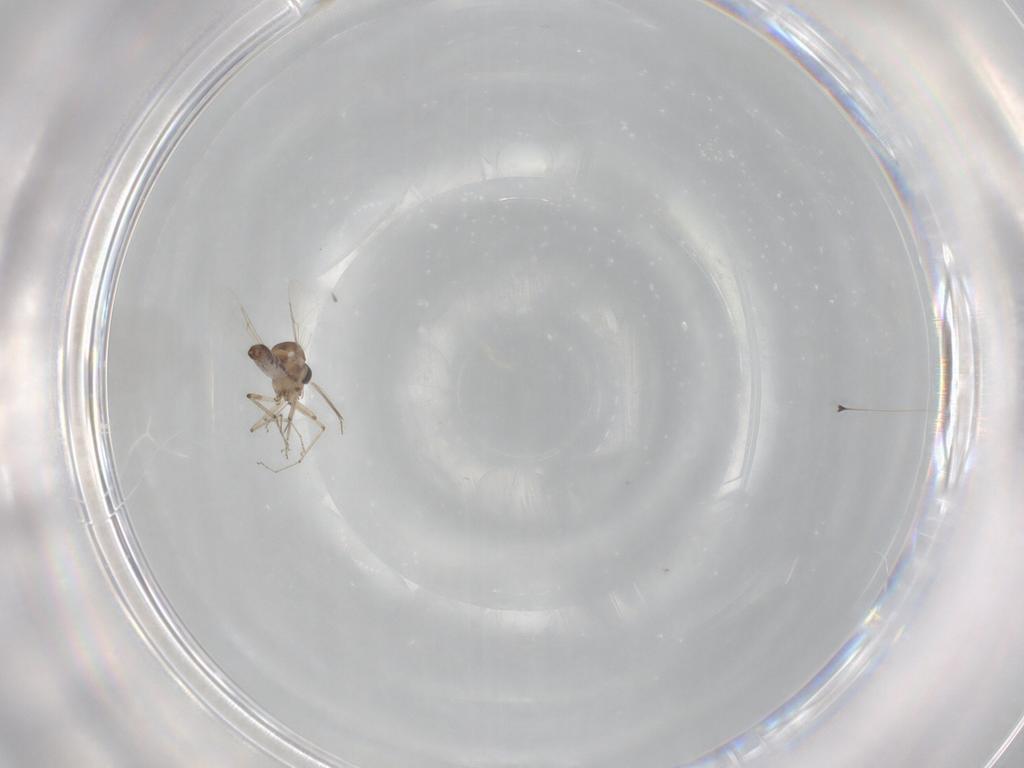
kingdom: Animalia
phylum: Arthropoda
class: Insecta
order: Diptera
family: Ceratopogonidae
